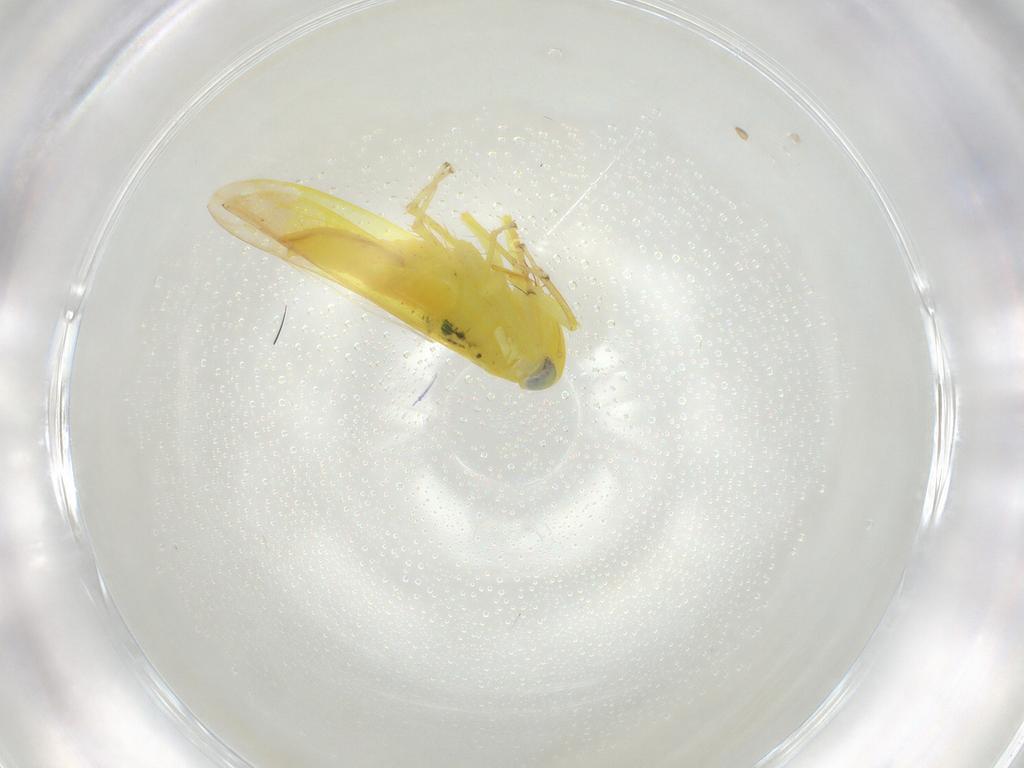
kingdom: Animalia
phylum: Arthropoda
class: Insecta
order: Hemiptera
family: Cicadellidae
